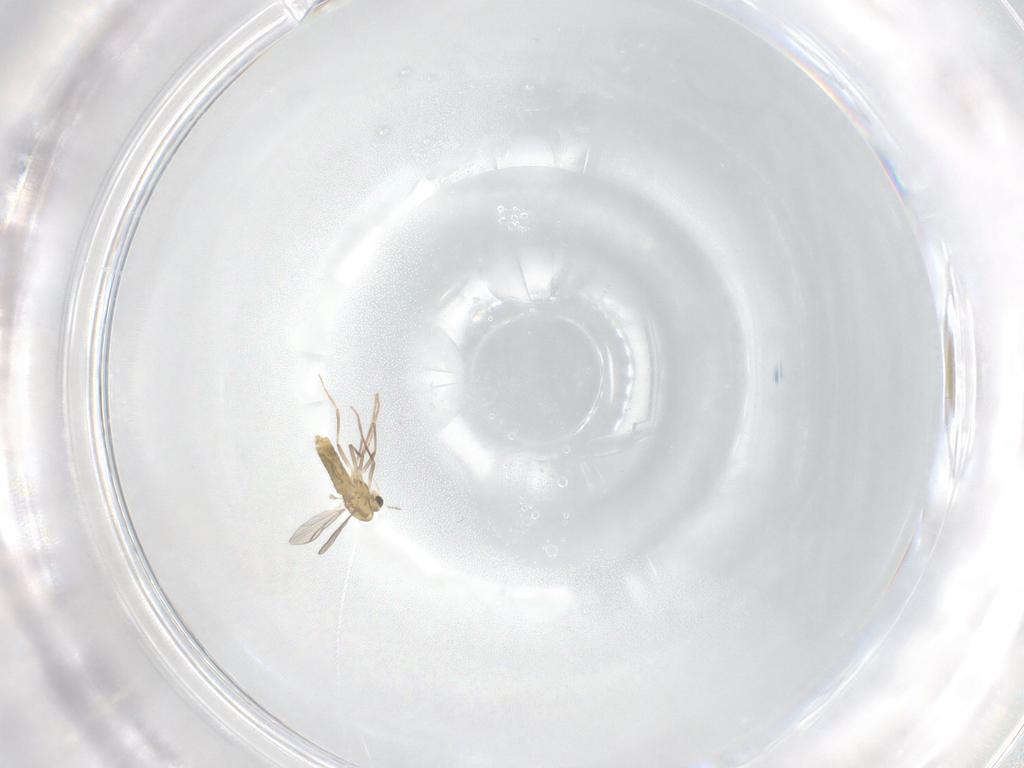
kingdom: Animalia
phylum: Arthropoda
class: Insecta
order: Diptera
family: Chironomidae
